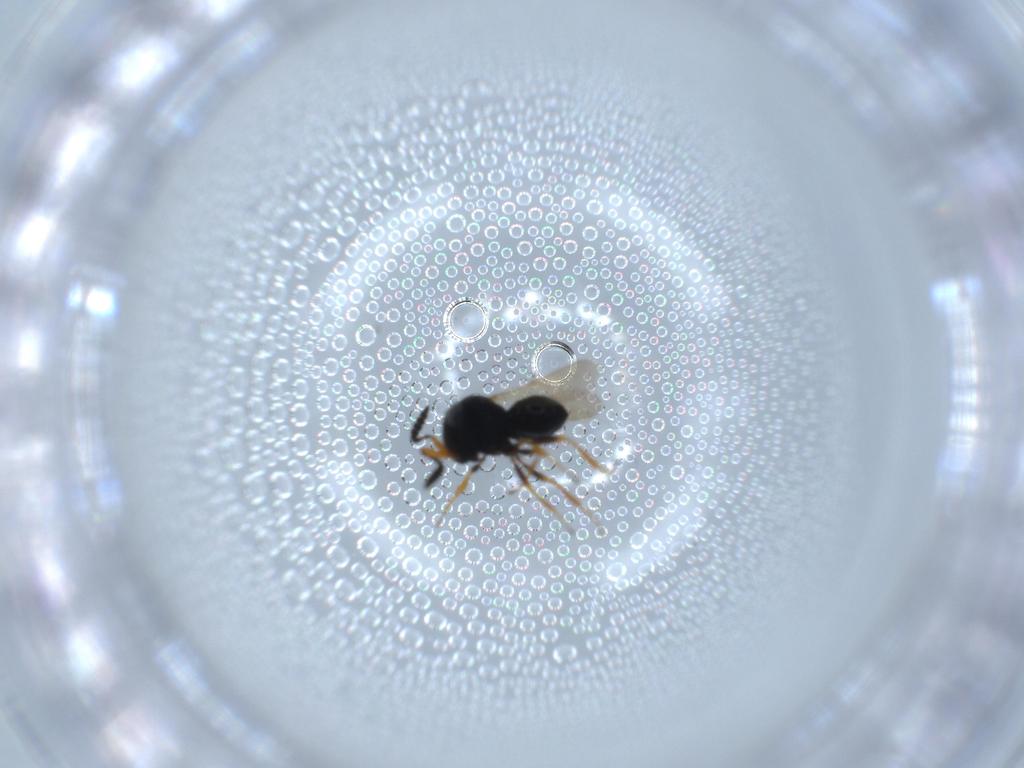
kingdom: Animalia
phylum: Arthropoda
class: Insecta
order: Hymenoptera
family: Scelionidae
